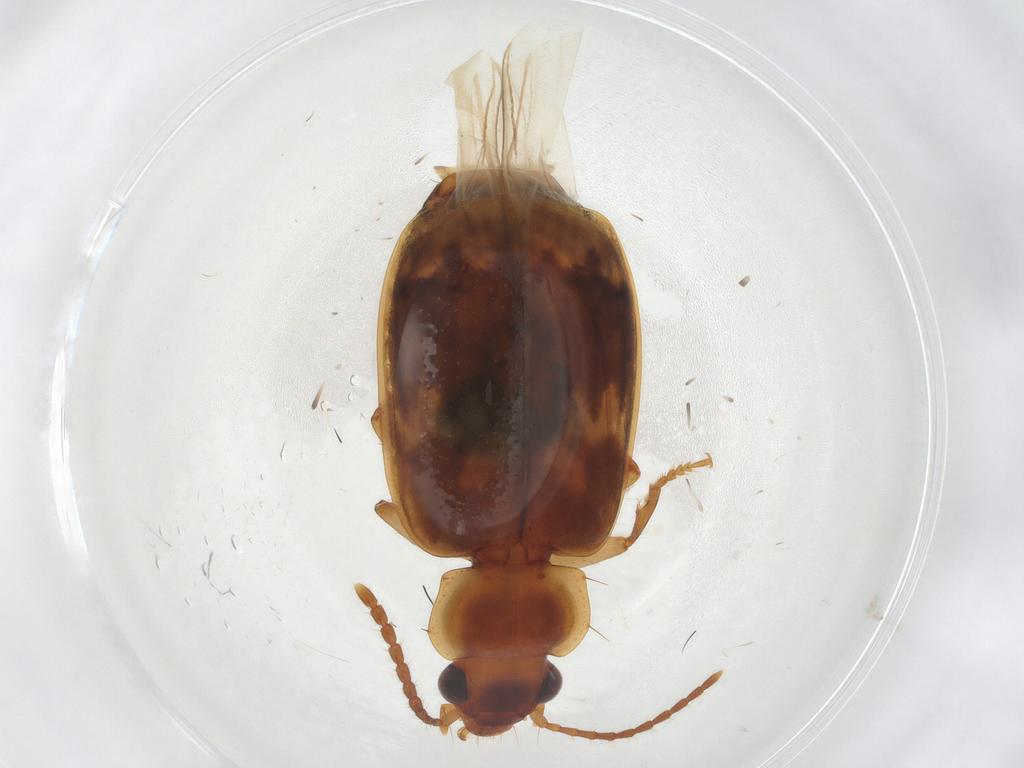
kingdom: Animalia
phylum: Arthropoda
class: Insecta
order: Coleoptera
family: Carabidae
